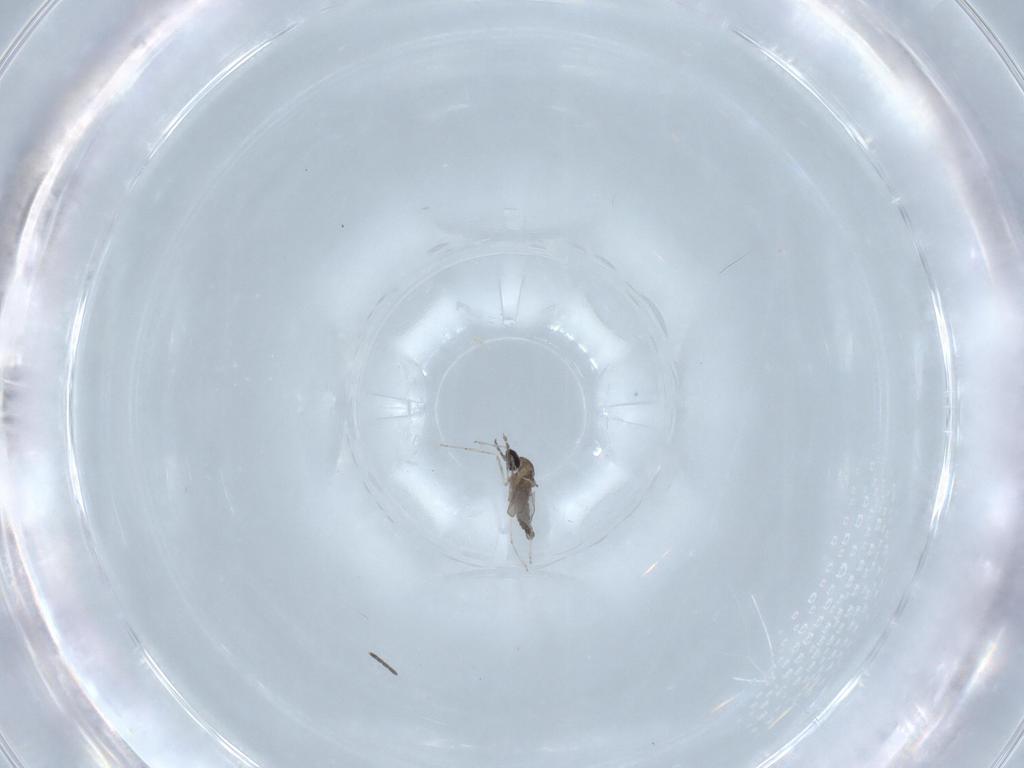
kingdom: Animalia
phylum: Arthropoda
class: Insecta
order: Diptera
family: Cecidomyiidae
